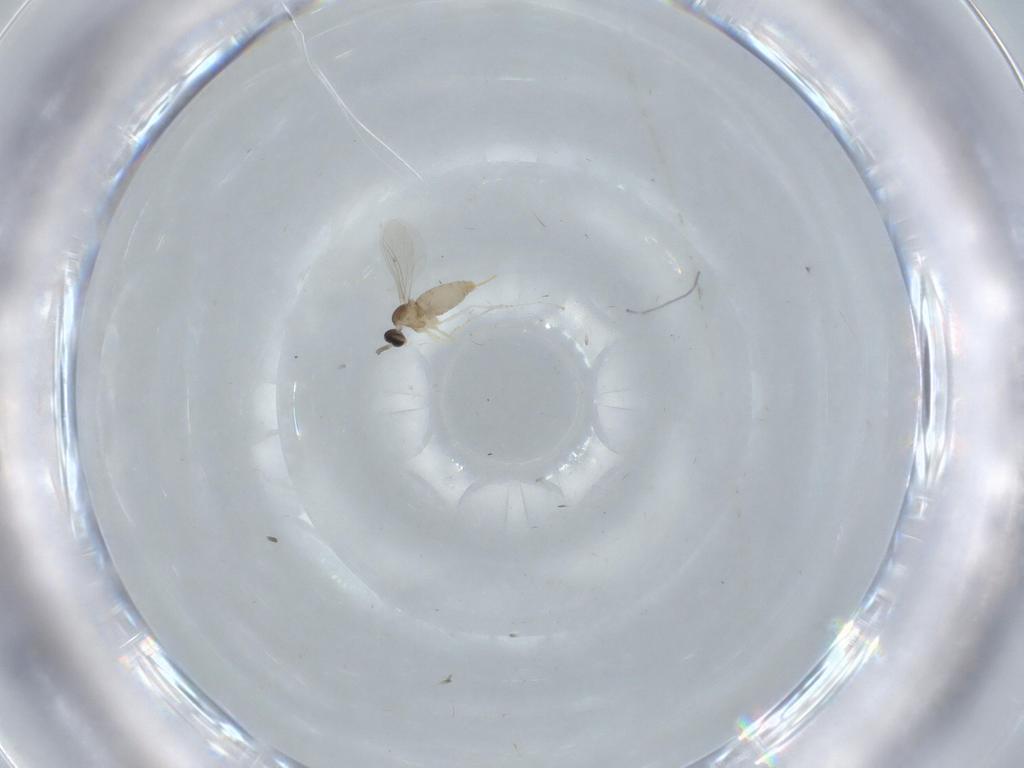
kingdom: Animalia
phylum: Arthropoda
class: Insecta
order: Diptera
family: Cecidomyiidae
